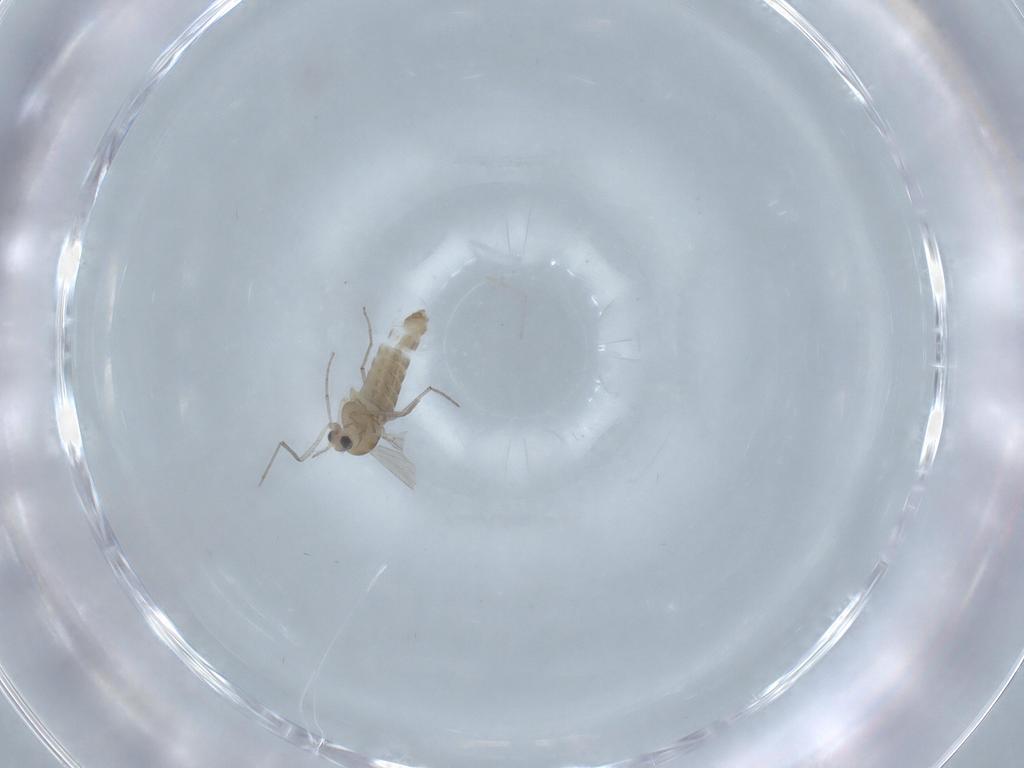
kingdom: Animalia
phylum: Arthropoda
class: Insecta
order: Diptera
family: Chironomidae
